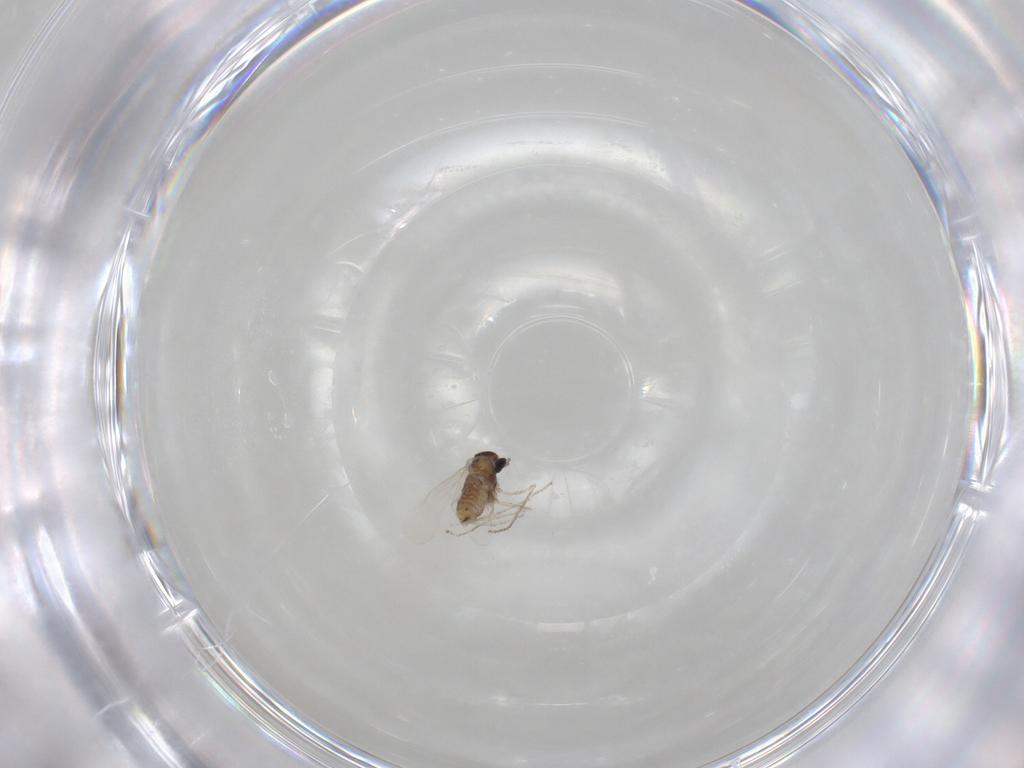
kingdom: Animalia
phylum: Arthropoda
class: Insecta
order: Diptera
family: Cecidomyiidae
